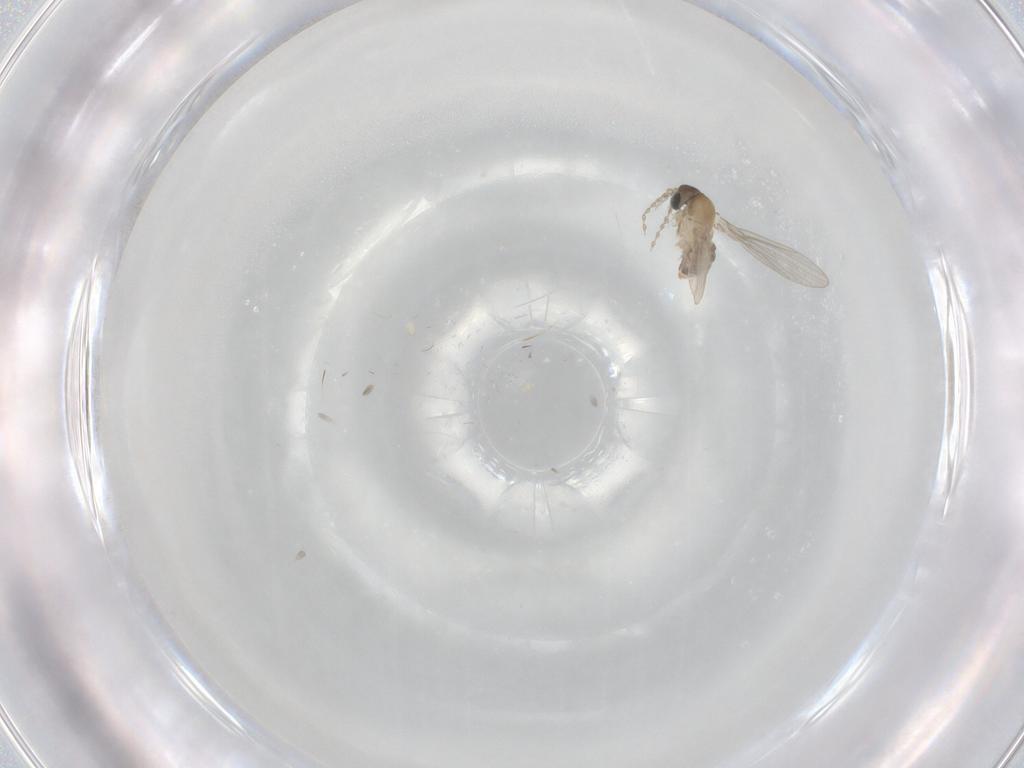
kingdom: Animalia
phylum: Arthropoda
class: Insecta
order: Diptera
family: Psychodidae
